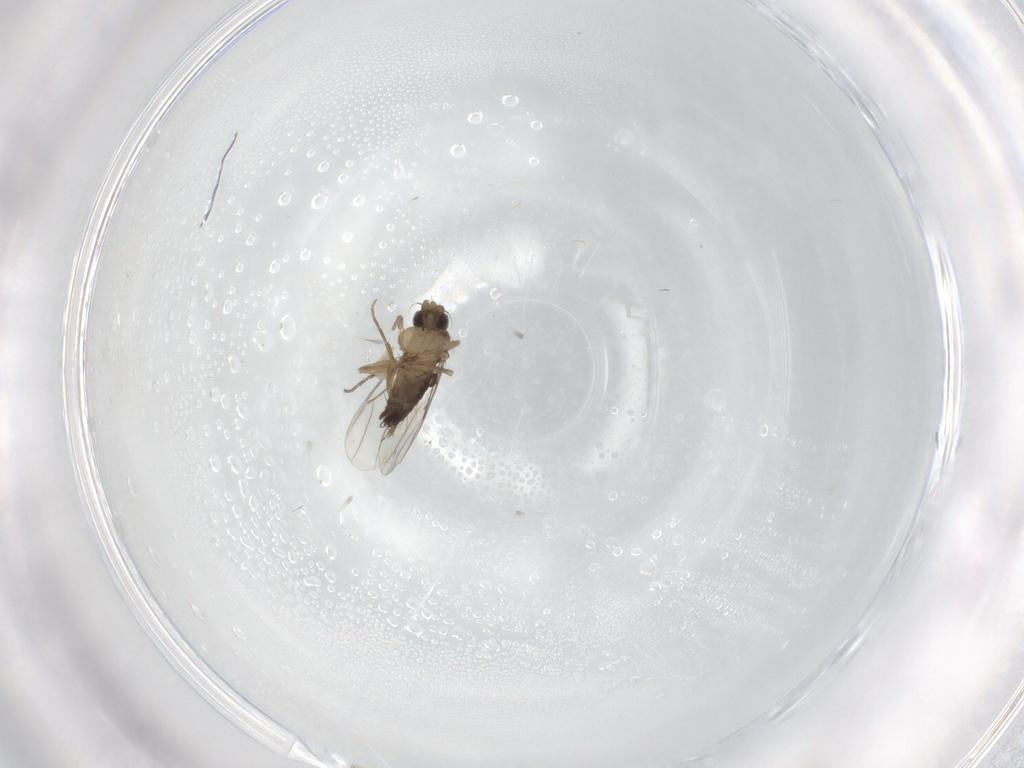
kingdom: Animalia
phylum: Arthropoda
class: Insecta
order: Diptera
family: Phoridae
